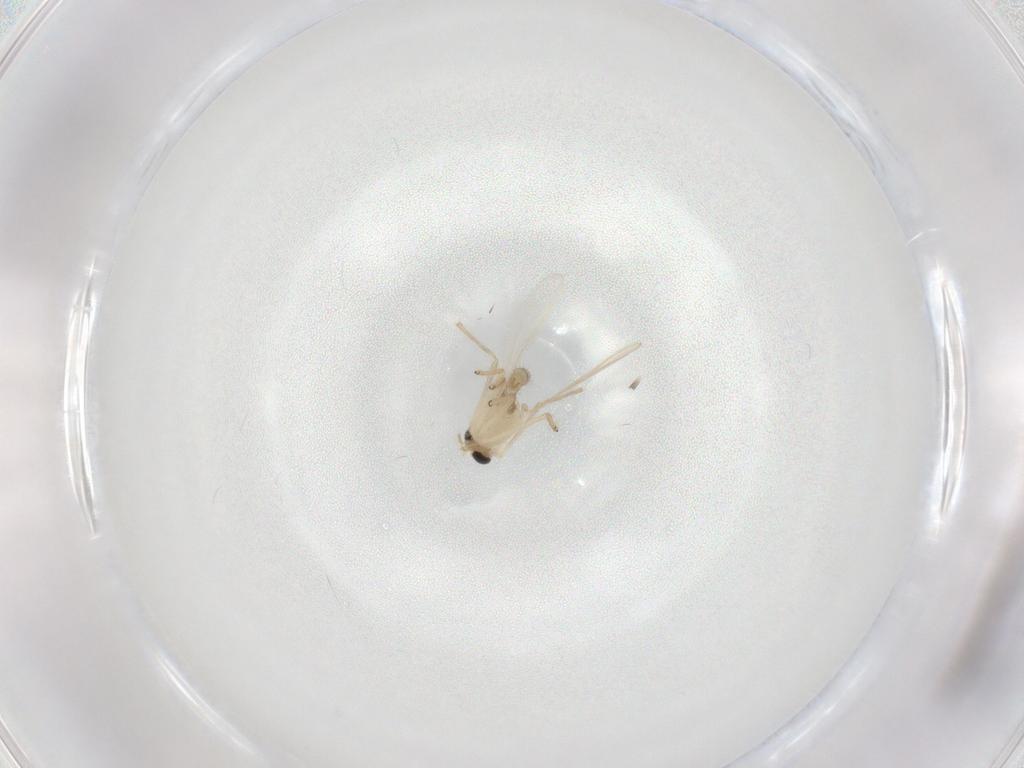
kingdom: Animalia
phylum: Arthropoda
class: Insecta
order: Diptera
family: Chironomidae
